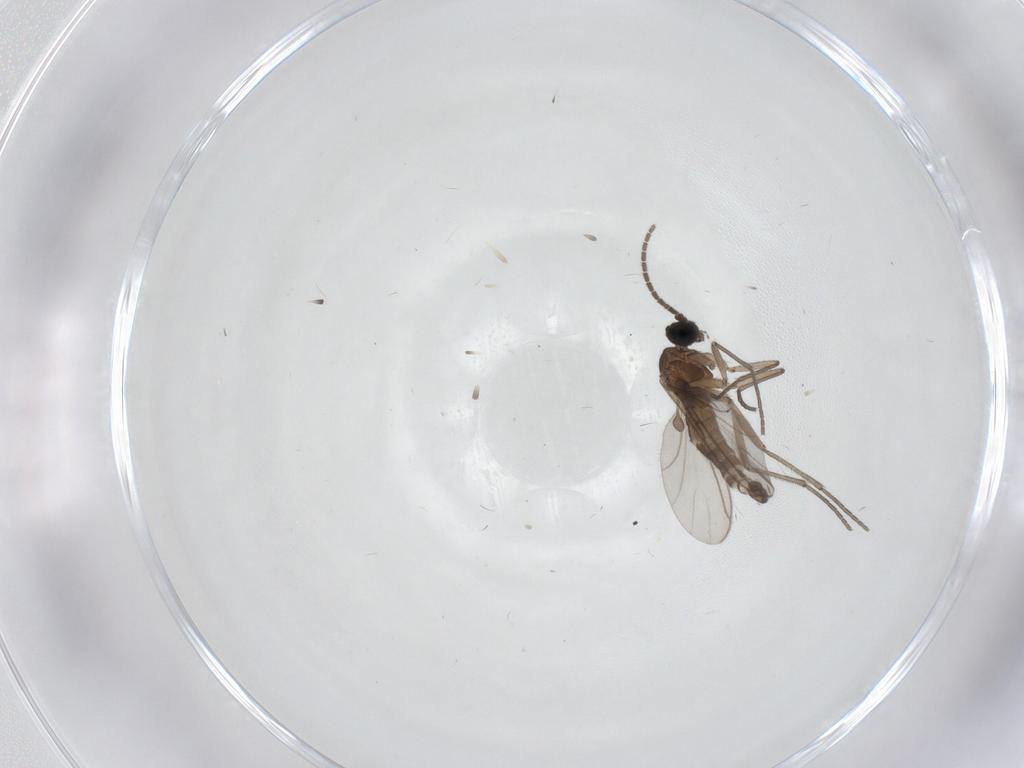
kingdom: Animalia
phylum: Arthropoda
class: Insecta
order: Diptera
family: Sciaridae
